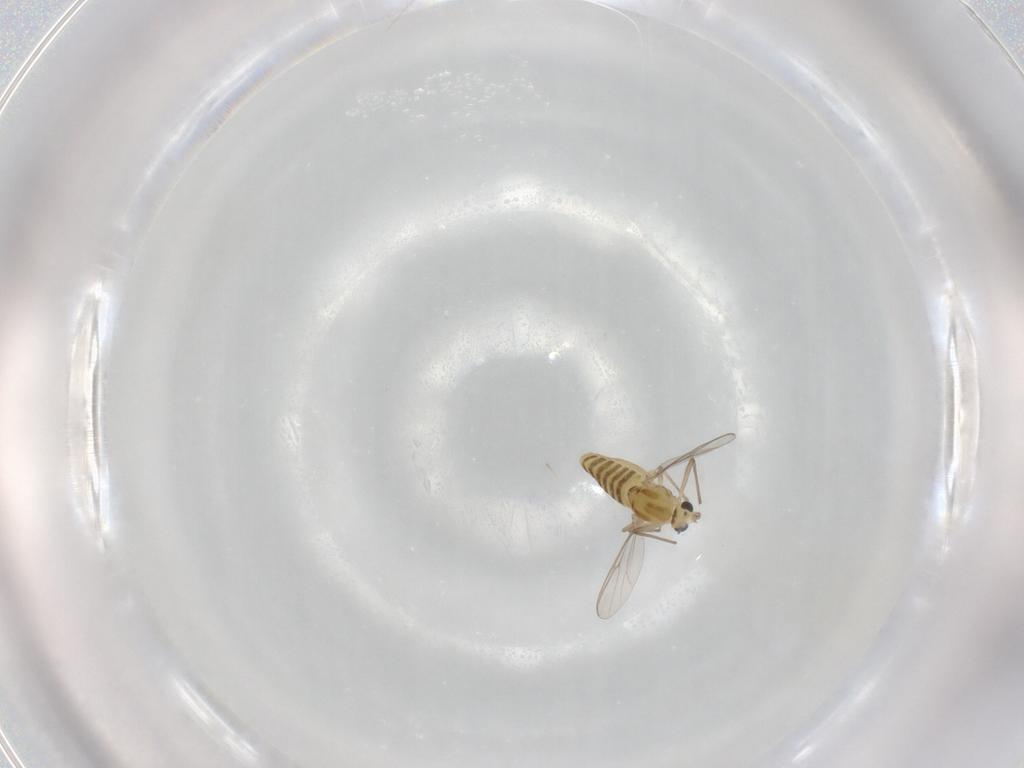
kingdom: Animalia
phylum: Arthropoda
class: Insecta
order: Diptera
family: Chironomidae
